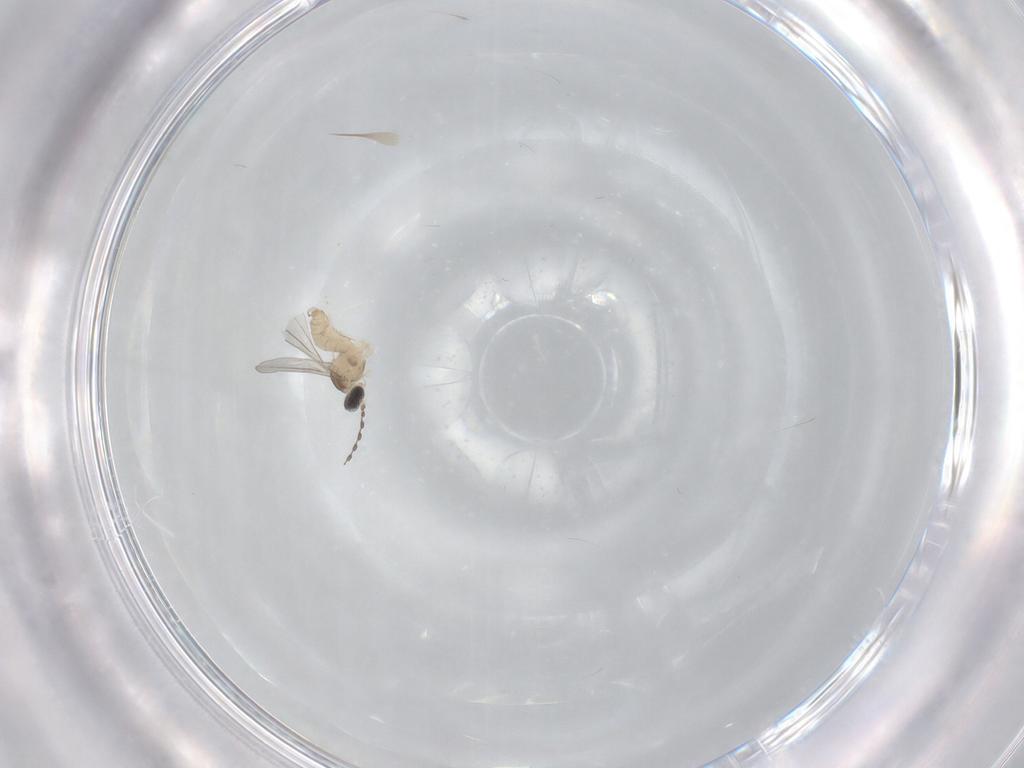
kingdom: Animalia
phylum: Arthropoda
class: Insecta
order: Diptera
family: Cecidomyiidae
